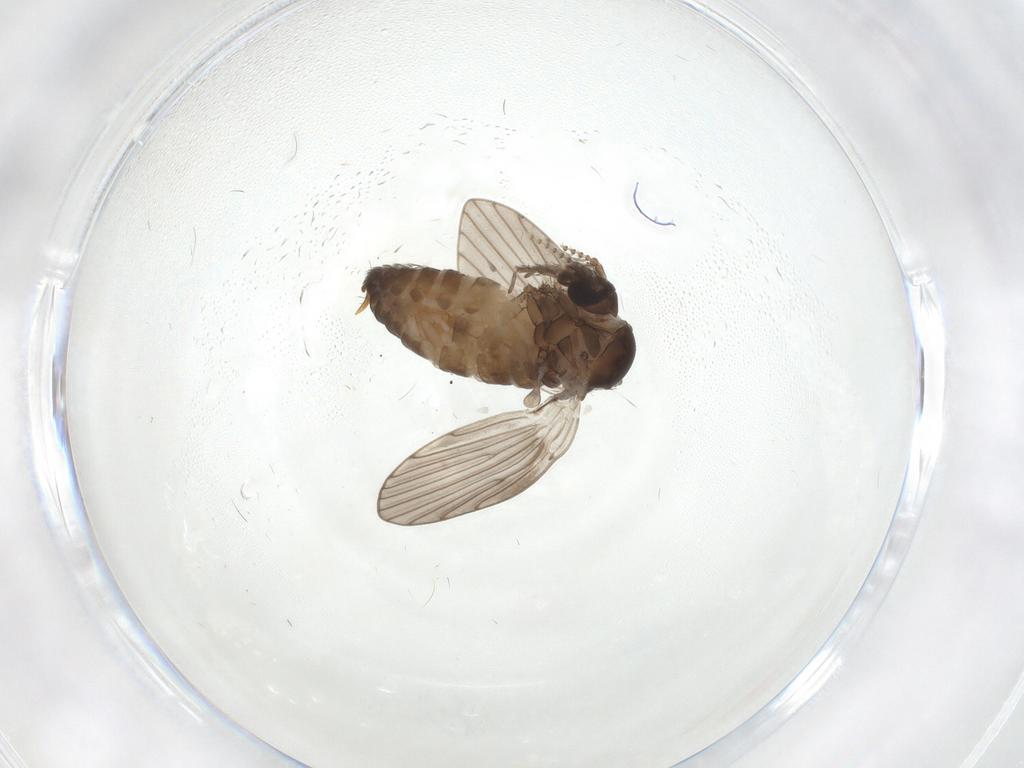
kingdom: Animalia
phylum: Arthropoda
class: Insecta
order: Diptera
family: Psychodidae
